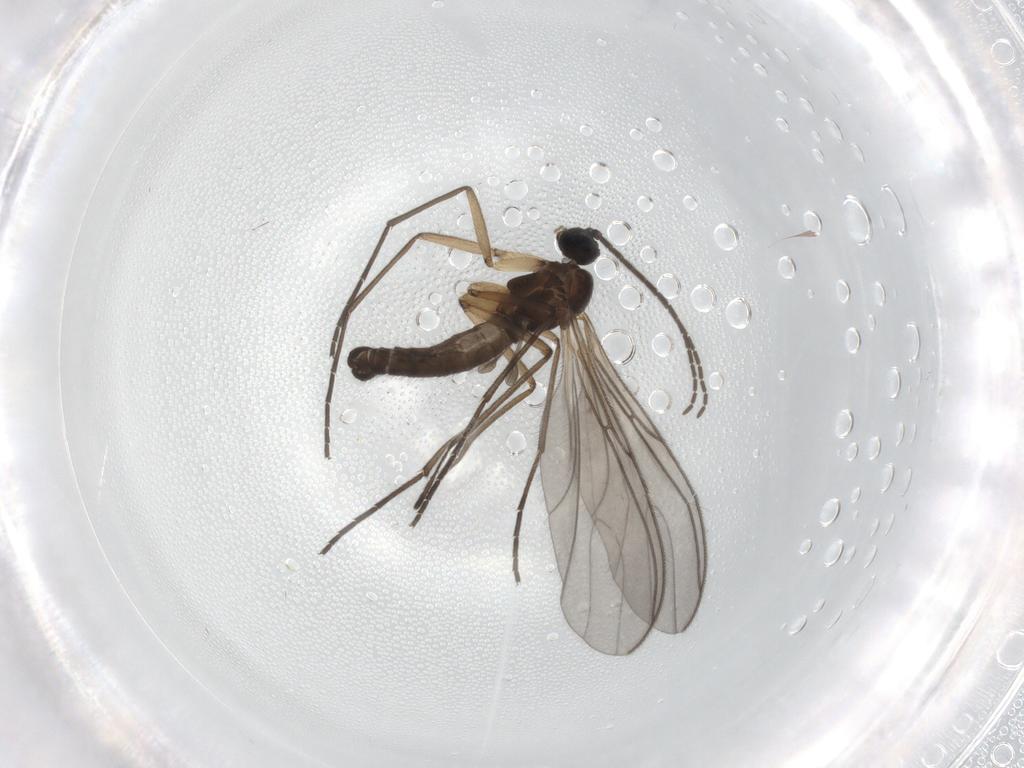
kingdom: Animalia
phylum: Arthropoda
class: Insecta
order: Diptera
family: Sciaridae
